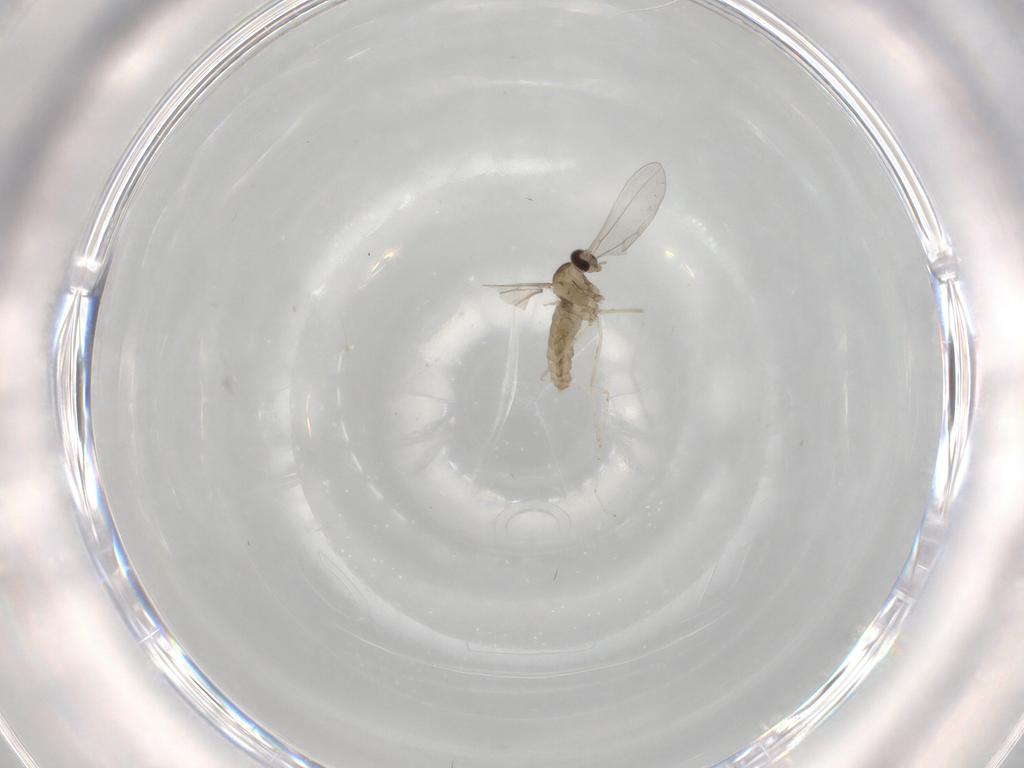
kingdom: Animalia
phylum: Arthropoda
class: Insecta
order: Diptera
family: Cecidomyiidae
